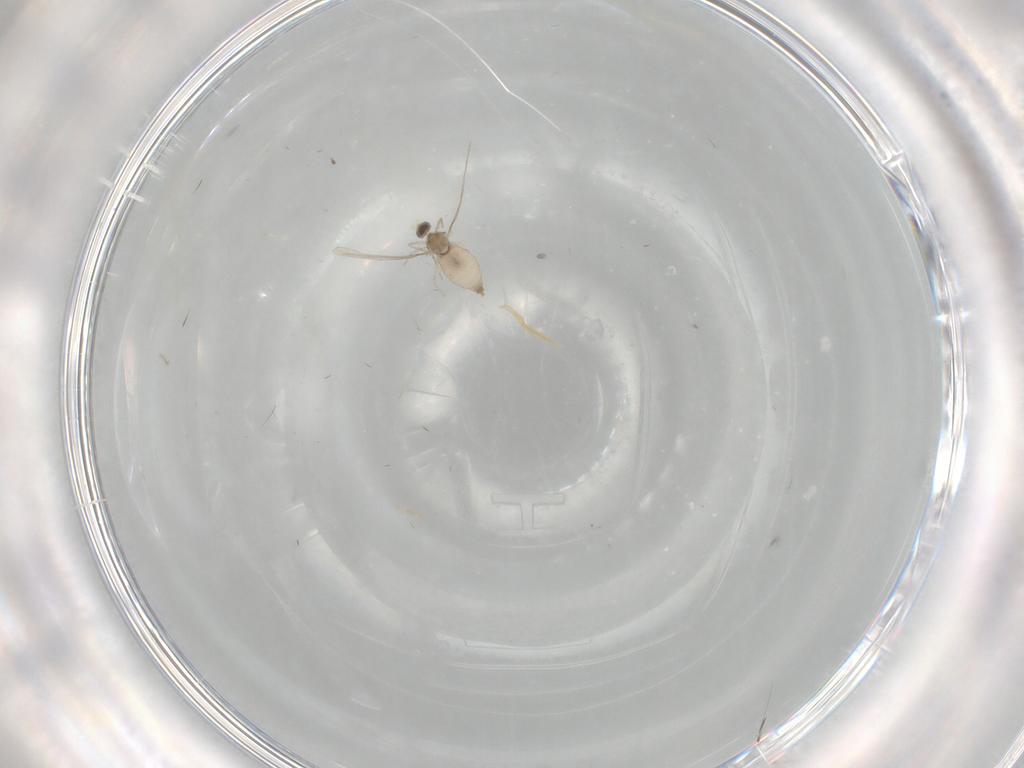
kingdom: Animalia
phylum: Arthropoda
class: Insecta
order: Diptera
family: Cecidomyiidae
